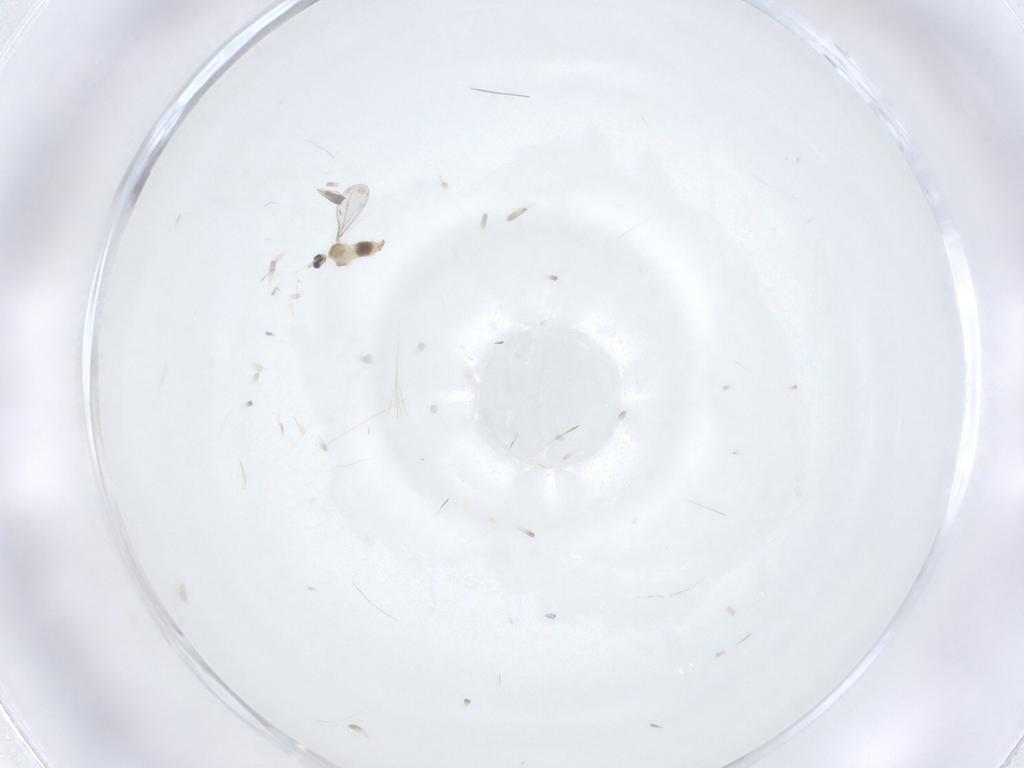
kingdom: Animalia
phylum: Arthropoda
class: Insecta
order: Diptera
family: Cecidomyiidae
